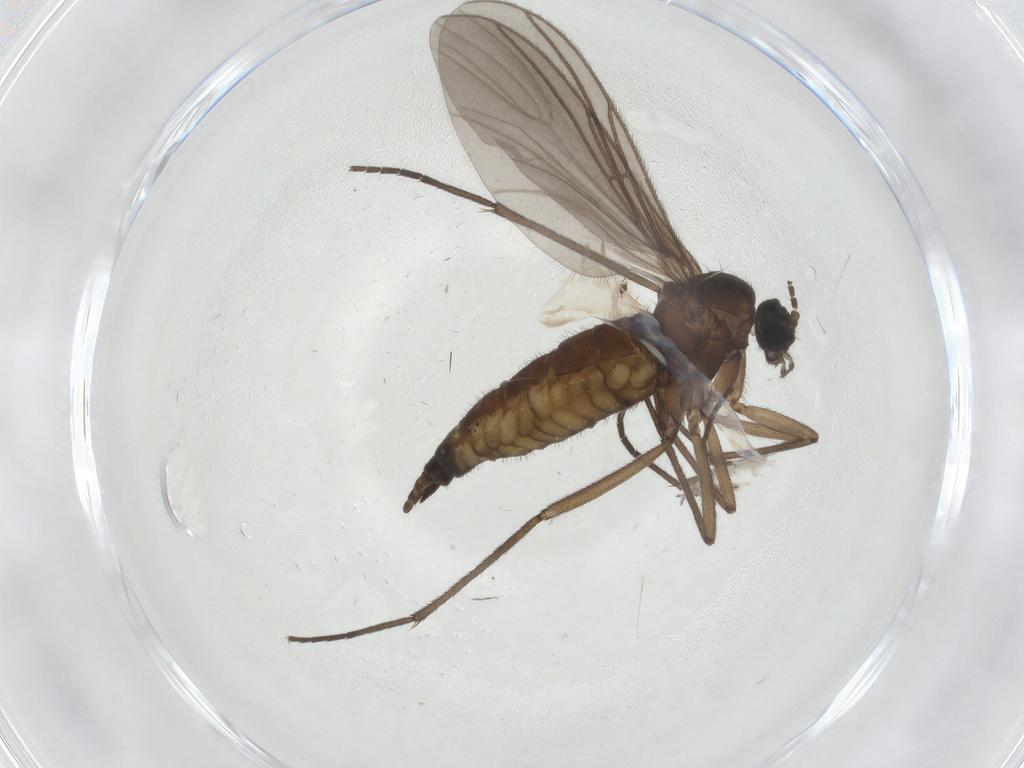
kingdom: Animalia
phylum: Arthropoda
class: Insecta
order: Diptera
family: Sciaridae
